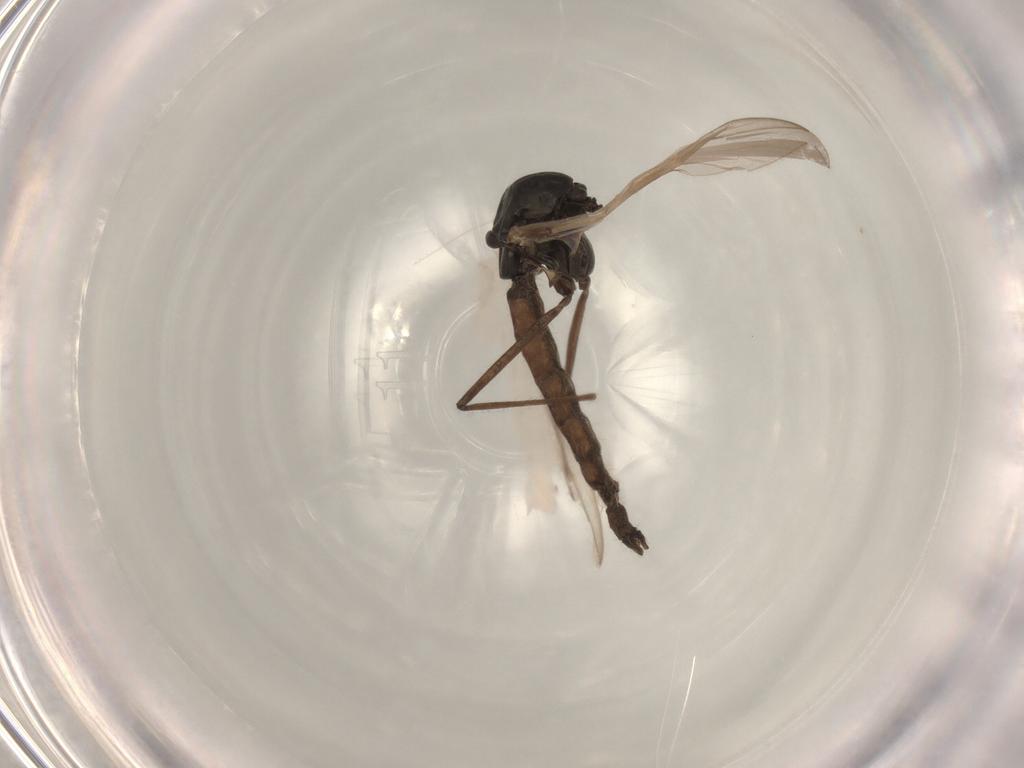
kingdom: Animalia
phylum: Arthropoda
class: Insecta
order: Diptera
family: Chironomidae
